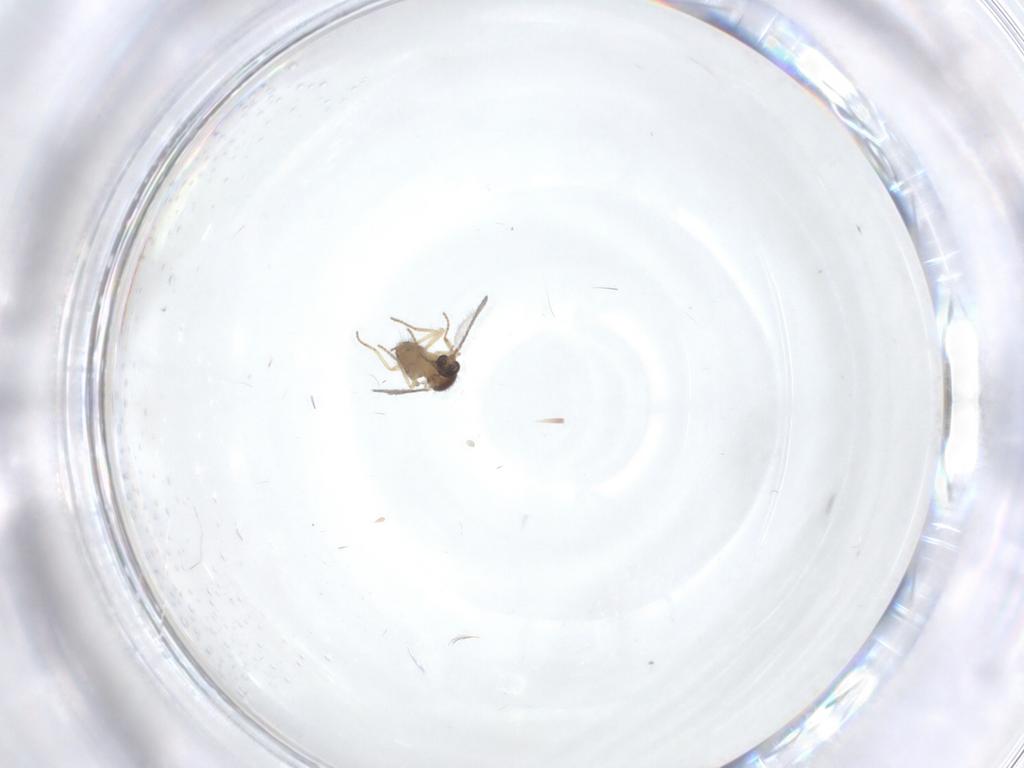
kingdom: Animalia
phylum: Arthropoda
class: Insecta
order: Diptera
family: Ceratopogonidae
